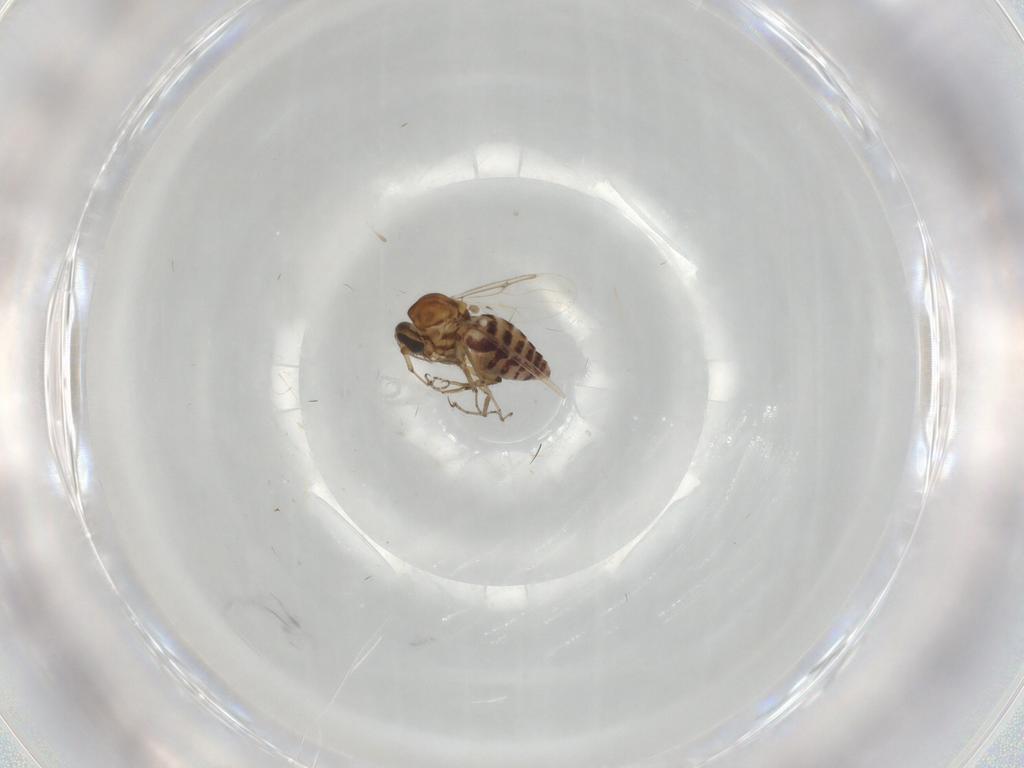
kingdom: Animalia
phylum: Arthropoda
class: Insecta
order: Diptera
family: Ceratopogonidae
